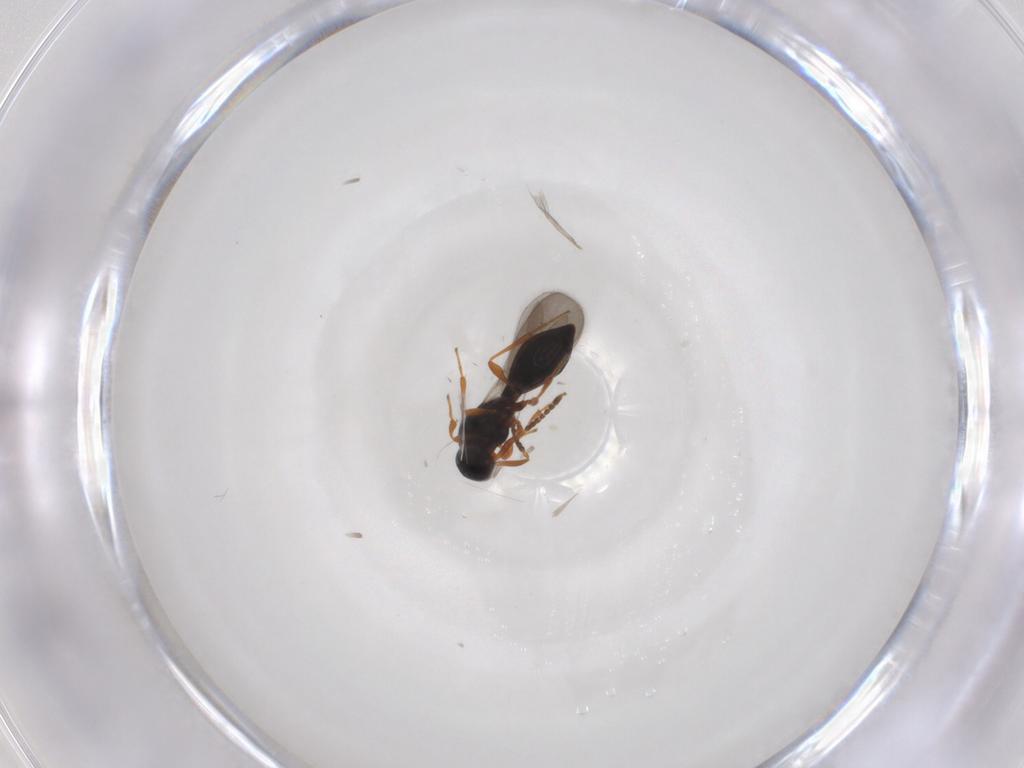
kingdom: Animalia
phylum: Arthropoda
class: Insecta
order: Hymenoptera
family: Platygastridae
